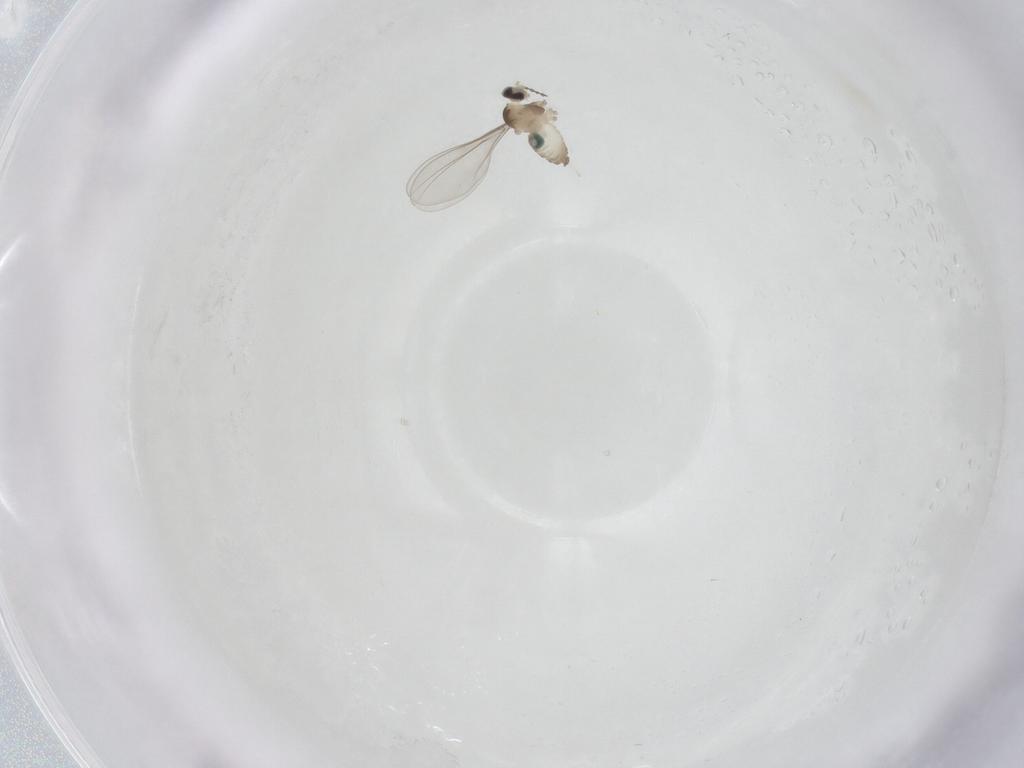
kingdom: Animalia
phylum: Arthropoda
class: Insecta
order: Diptera
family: Cecidomyiidae
